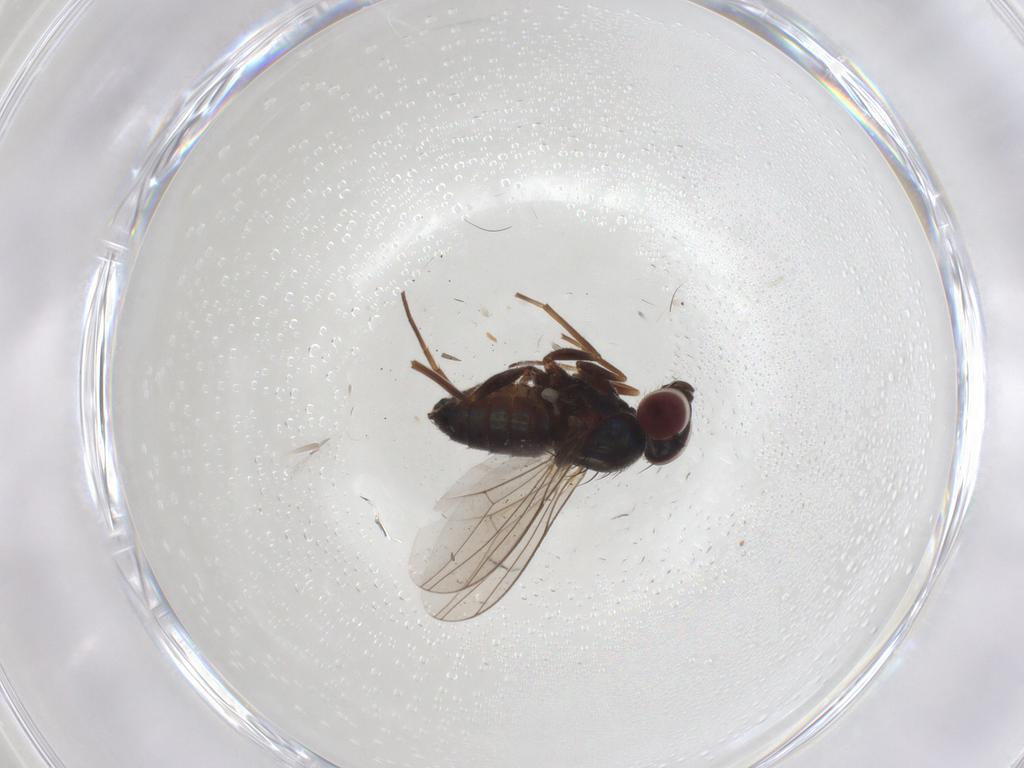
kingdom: Animalia
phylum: Arthropoda
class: Insecta
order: Diptera
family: Dolichopodidae
